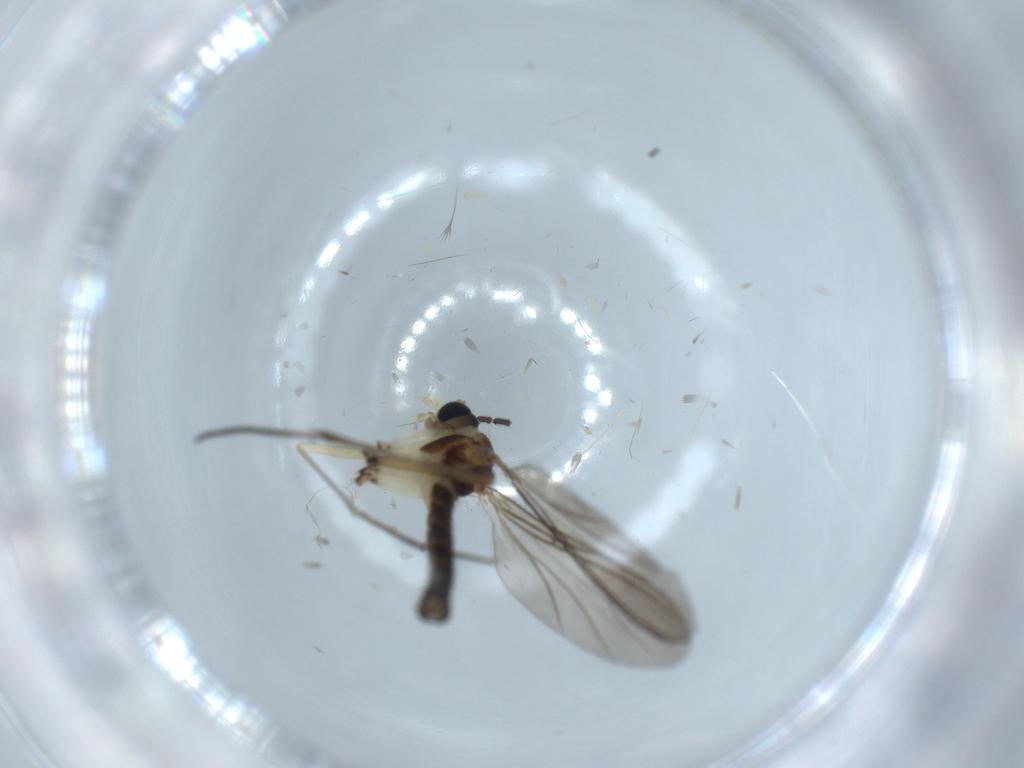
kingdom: Animalia
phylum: Arthropoda
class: Insecta
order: Diptera
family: Sciaridae
